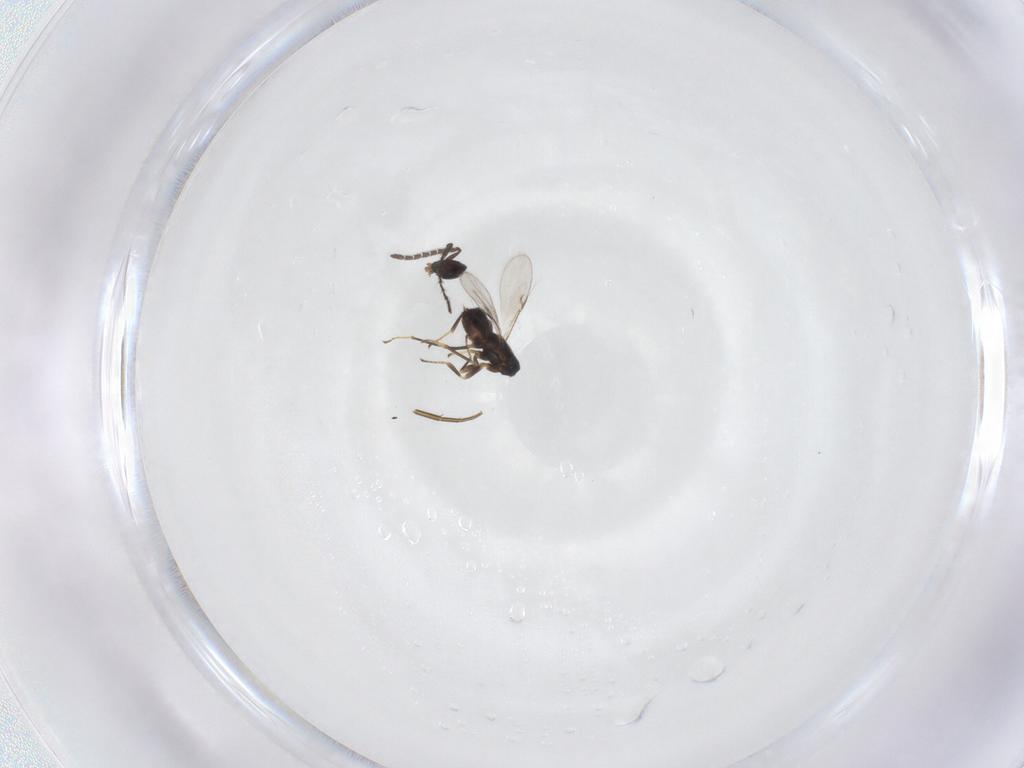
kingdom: Animalia
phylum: Arthropoda
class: Insecta
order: Hymenoptera
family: Encyrtidae
